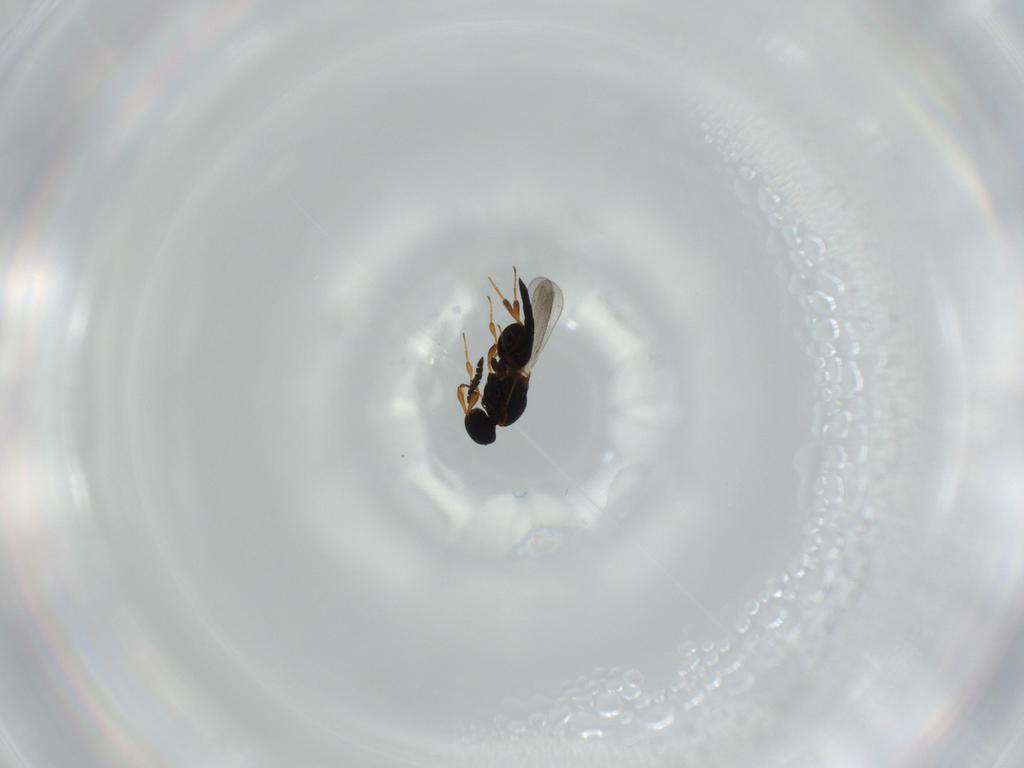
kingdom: Animalia
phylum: Arthropoda
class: Insecta
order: Hymenoptera
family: Platygastridae
